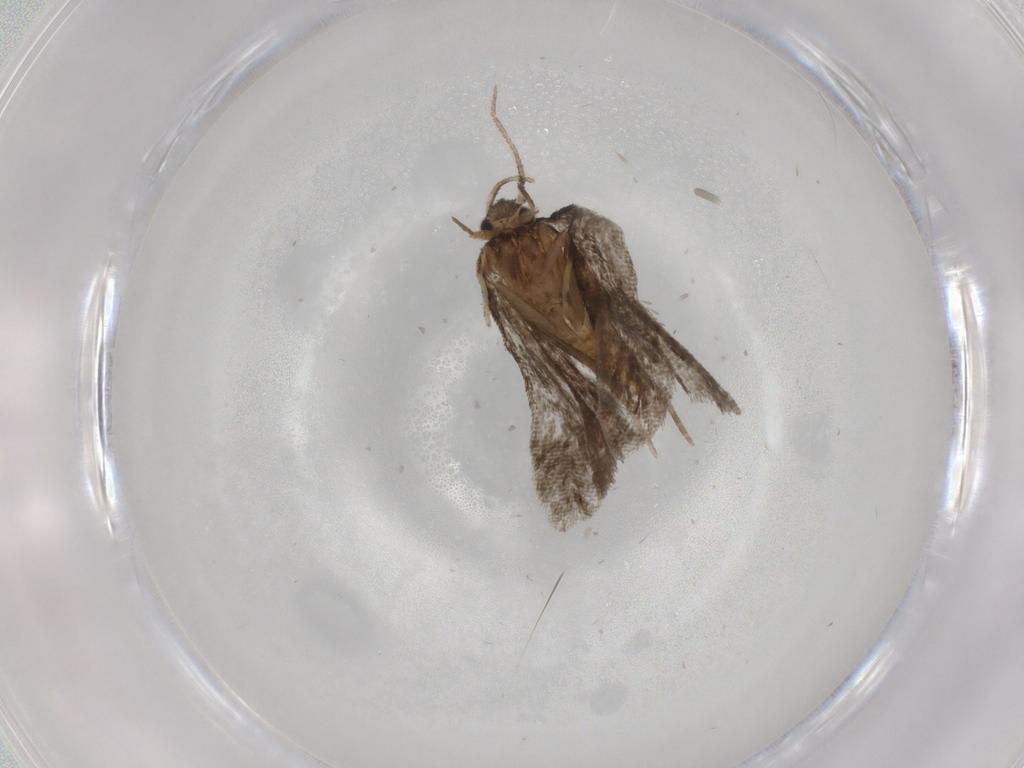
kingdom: Animalia
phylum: Arthropoda
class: Insecta
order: Lepidoptera
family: Psychidae
